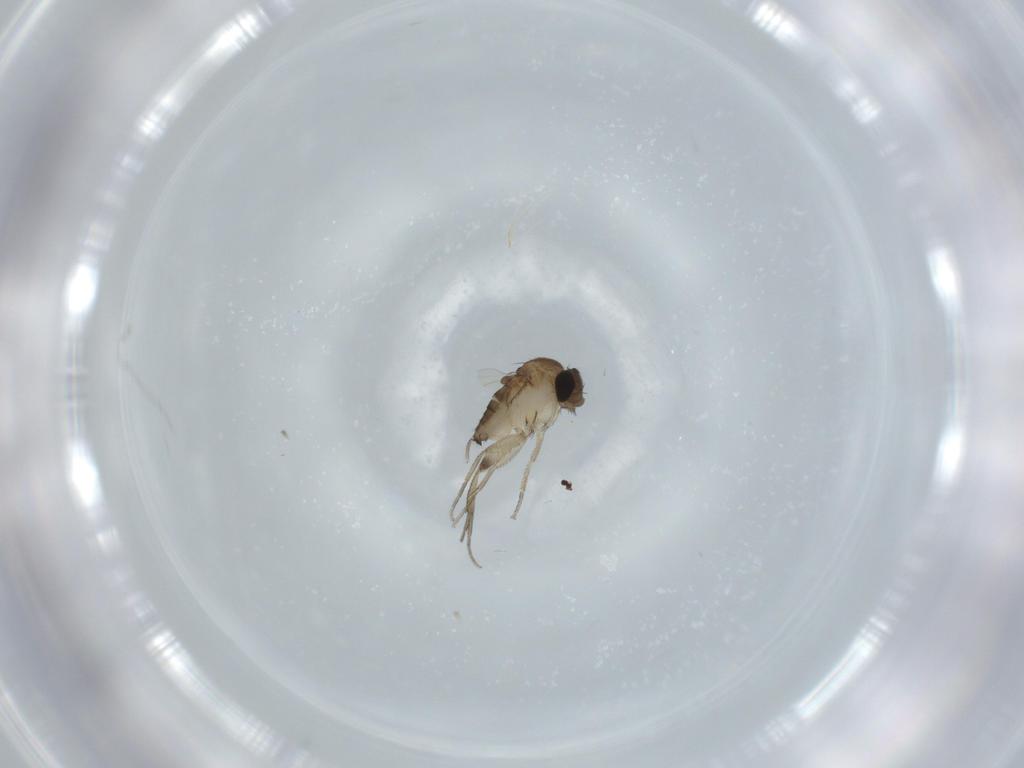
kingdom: Animalia
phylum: Arthropoda
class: Insecta
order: Diptera
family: Phoridae
